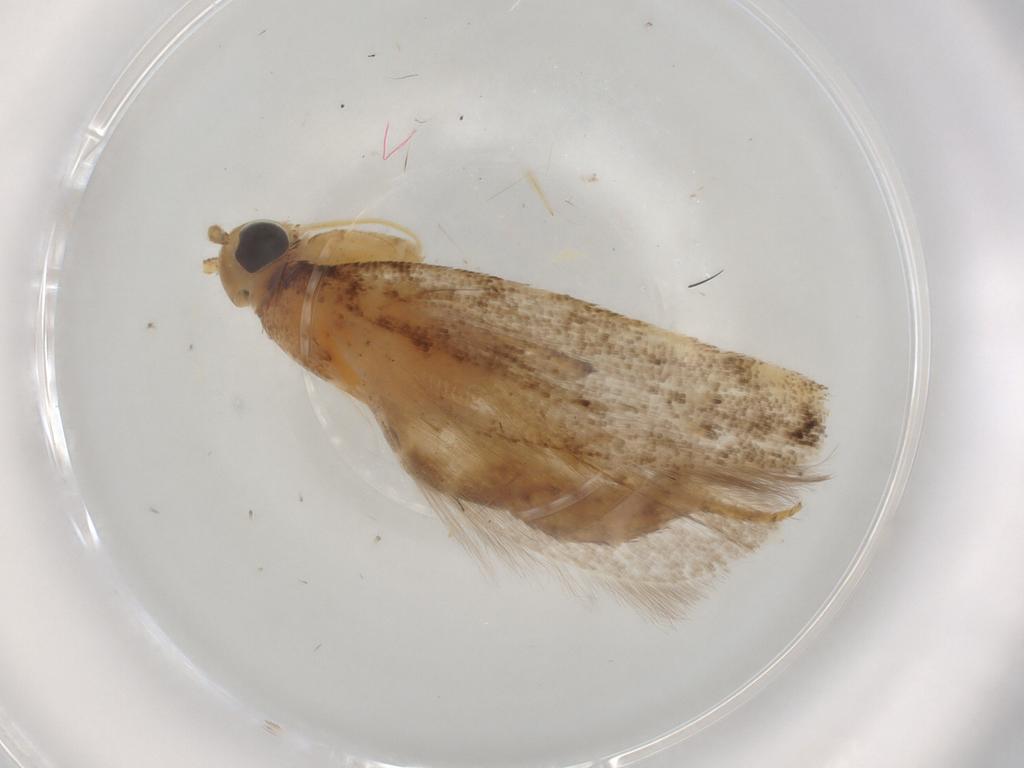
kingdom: Animalia
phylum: Arthropoda
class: Insecta
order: Lepidoptera
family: Gelechiidae
